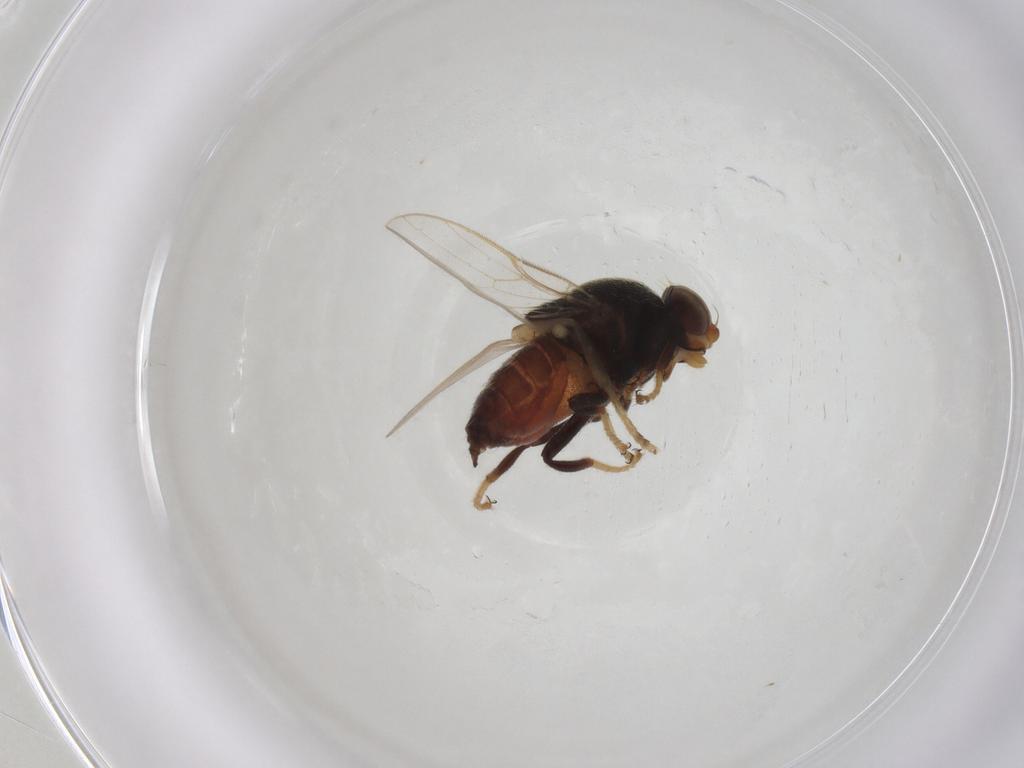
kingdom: Animalia
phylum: Arthropoda
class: Insecta
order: Diptera
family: Chloropidae
